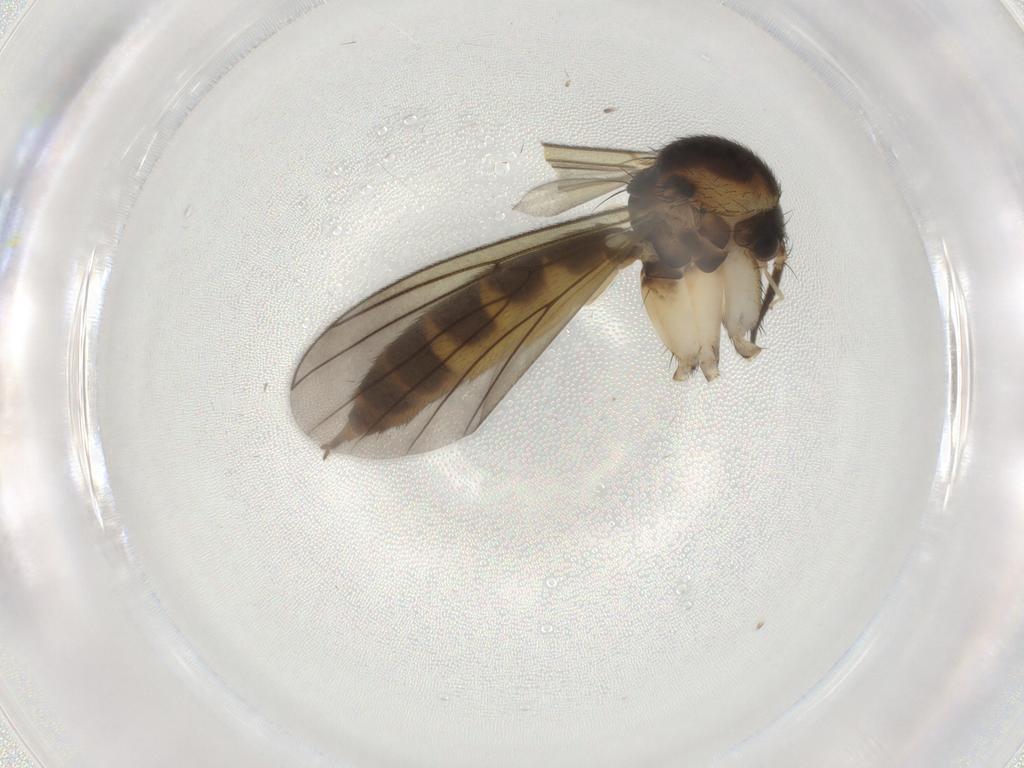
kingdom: Animalia
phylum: Arthropoda
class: Insecta
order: Diptera
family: Mycetophilidae
